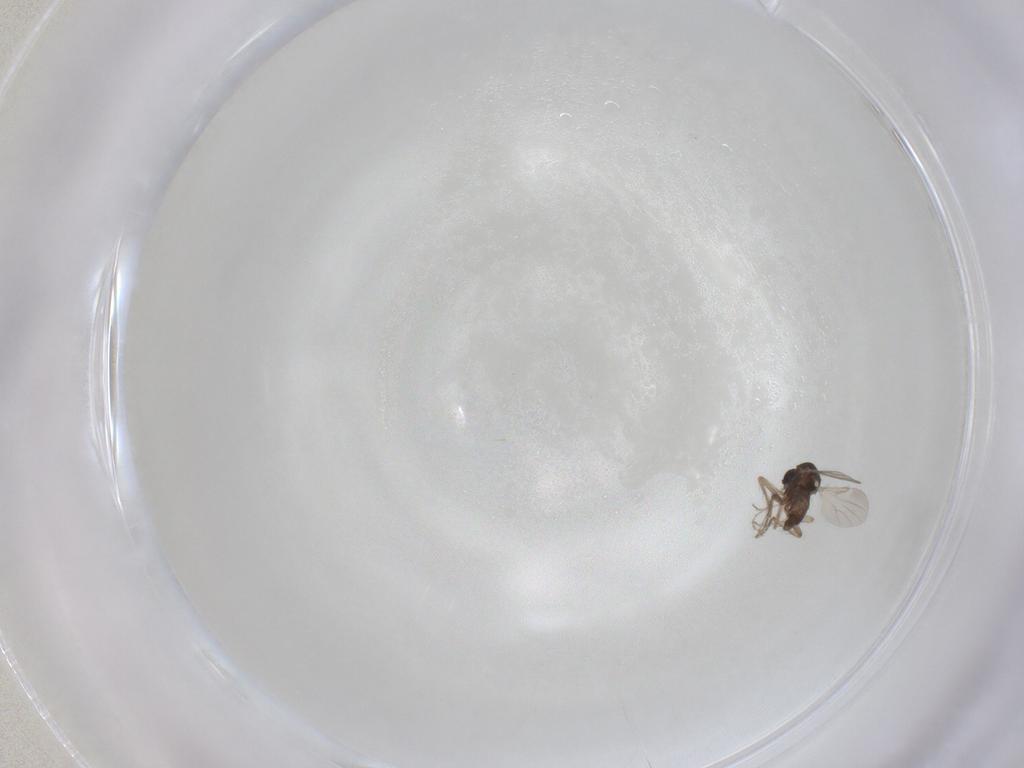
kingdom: Animalia
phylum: Arthropoda
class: Insecta
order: Diptera
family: Ceratopogonidae
